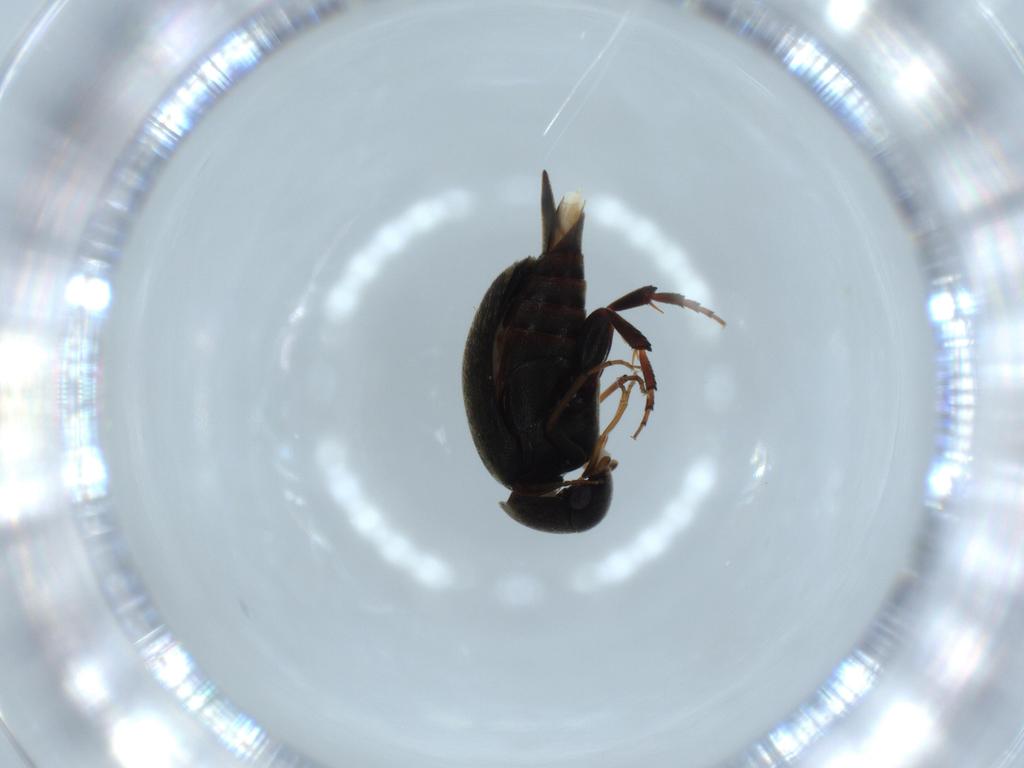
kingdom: Animalia
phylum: Arthropoda
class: Insecta
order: Coleoptera
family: Mordellidae
